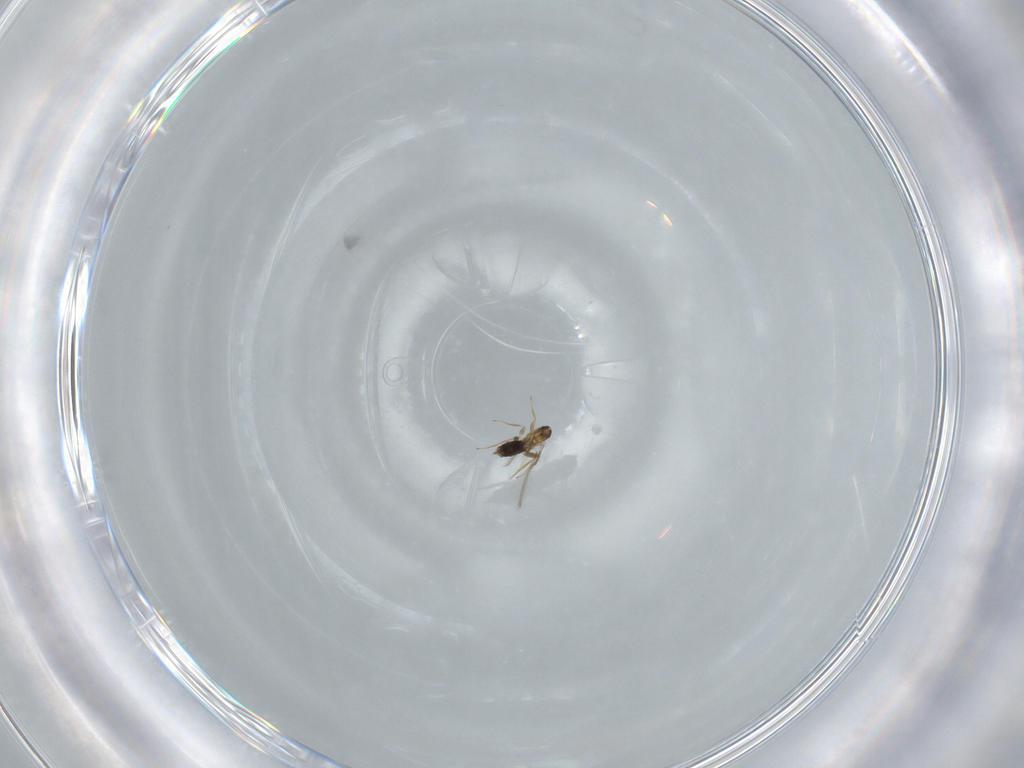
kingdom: Animalia
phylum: Arthropoda
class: Insecta
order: Hymenoptera
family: Mymaridae
